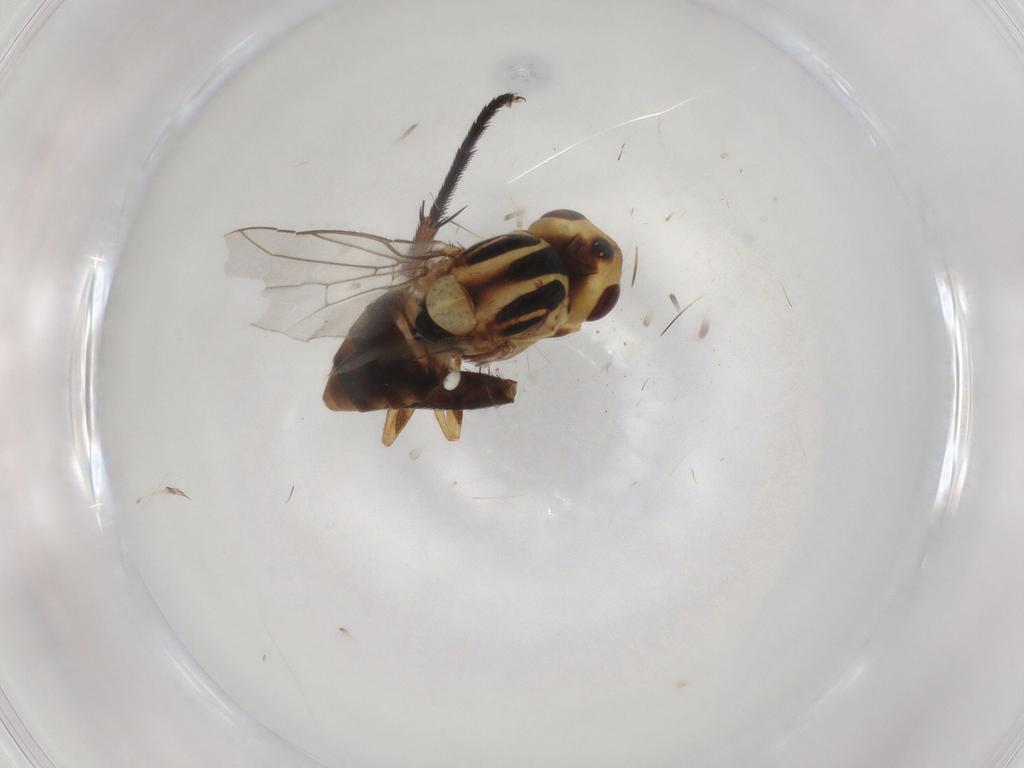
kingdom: Animalia
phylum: Arthropoda
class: Insecta
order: Diptera
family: Chloropidae
